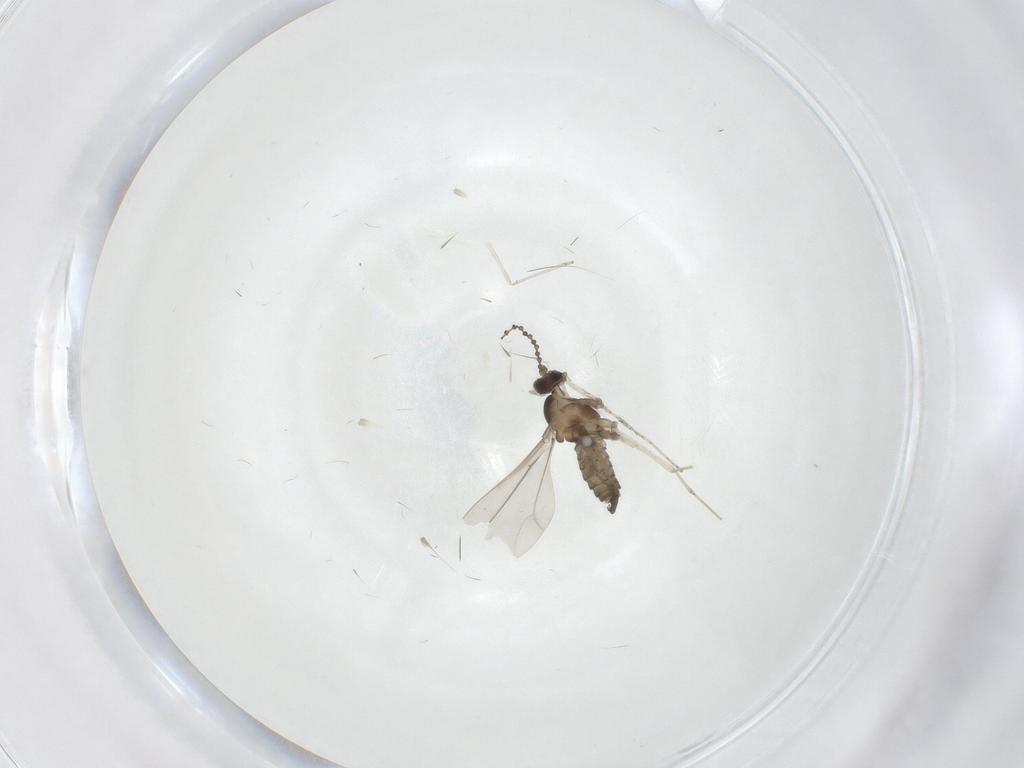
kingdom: Animalia
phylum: Arthropoda
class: Insecta
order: Diptera
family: Cecidomyiidae
